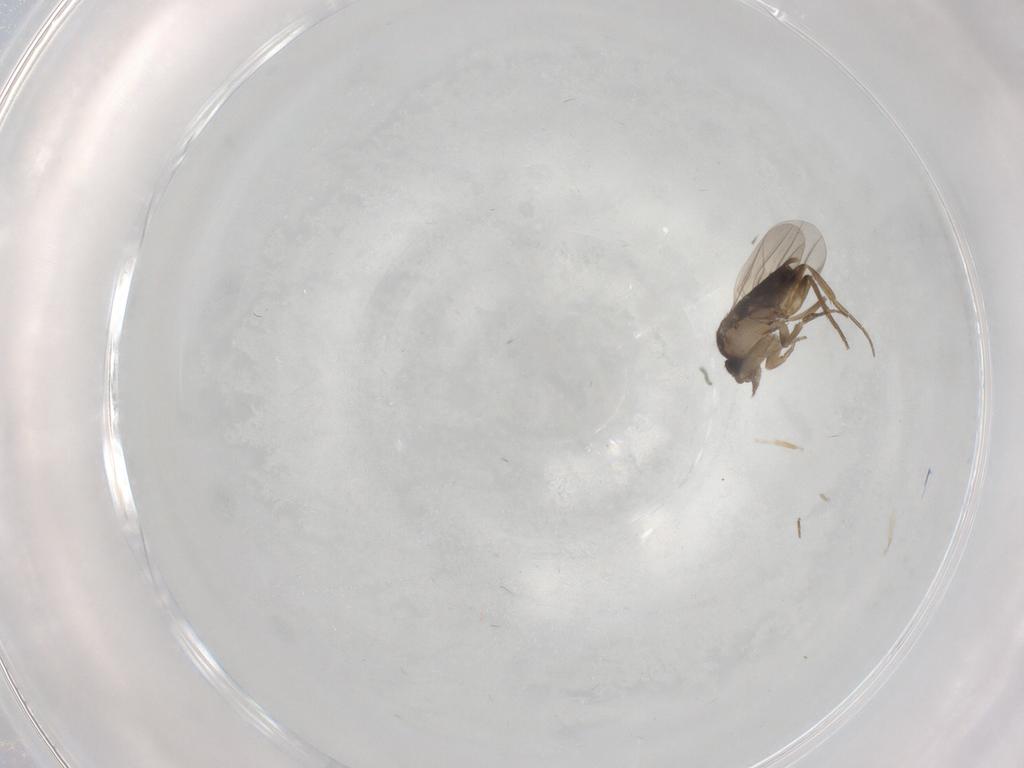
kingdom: Animalia
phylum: Arthropoda
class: Insecta
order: Diptera
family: Phoridae
